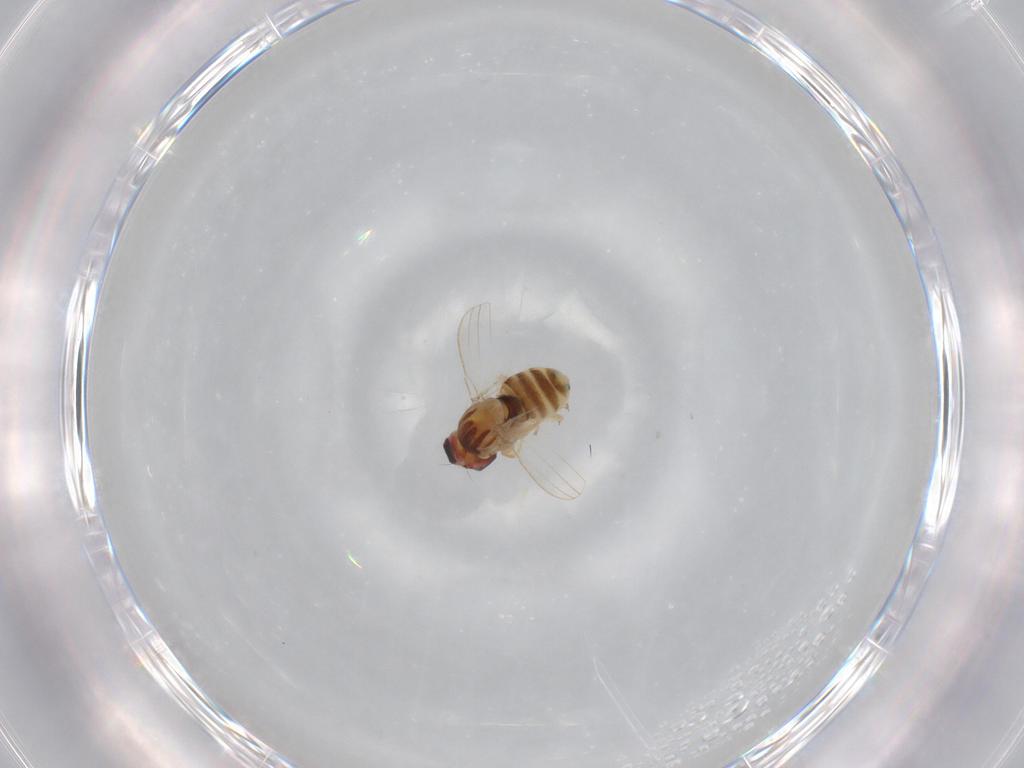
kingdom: Animalia
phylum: Arthropoda
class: Insecta
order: Diptera
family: Chyromyidae
